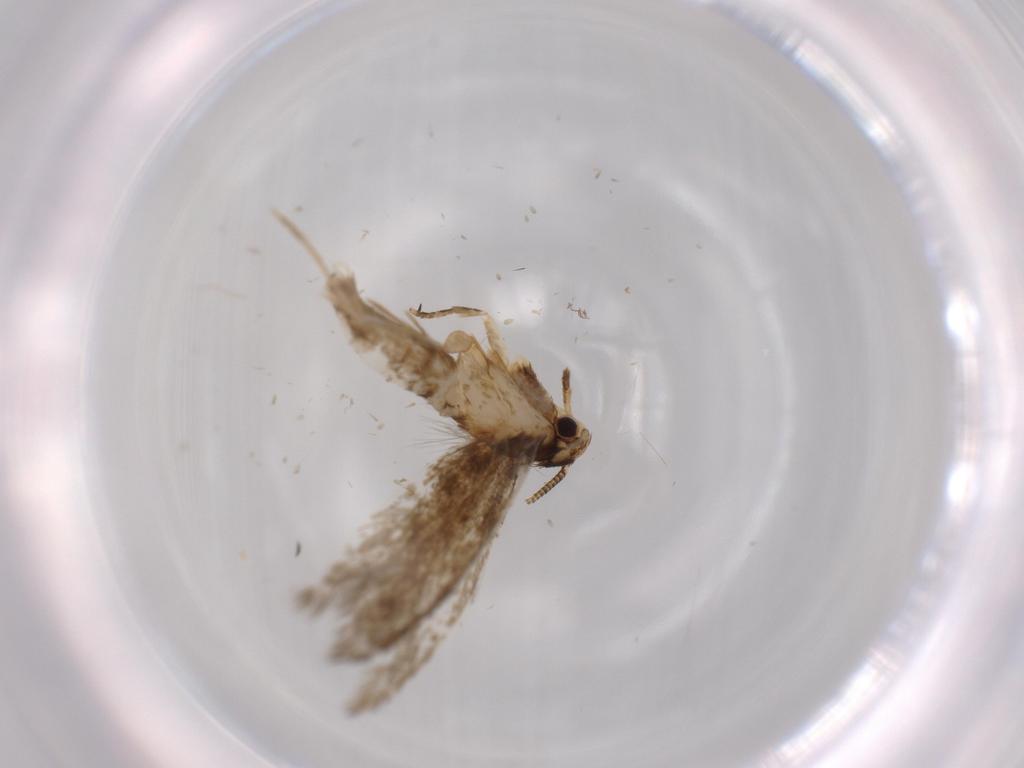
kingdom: Animalia
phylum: Arthropoda
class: Insecta
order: Lepidoptera
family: Tineidae
